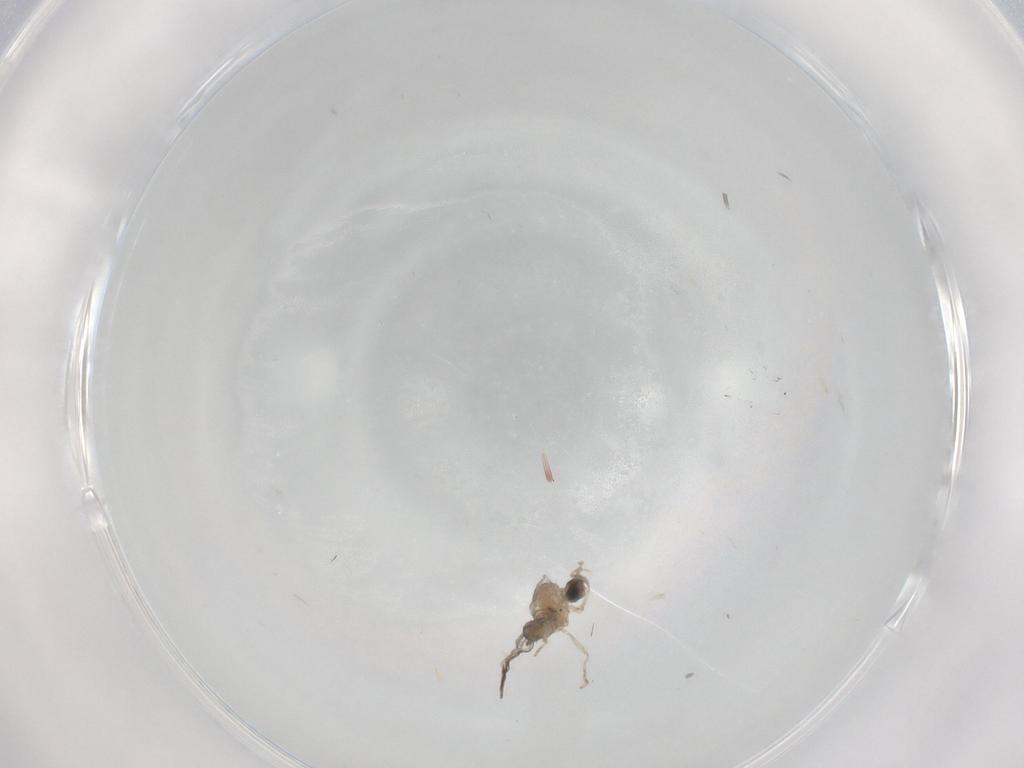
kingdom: Animalia
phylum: Arthropoda
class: Insecta
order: Diptera
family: Cecidomyiidae
